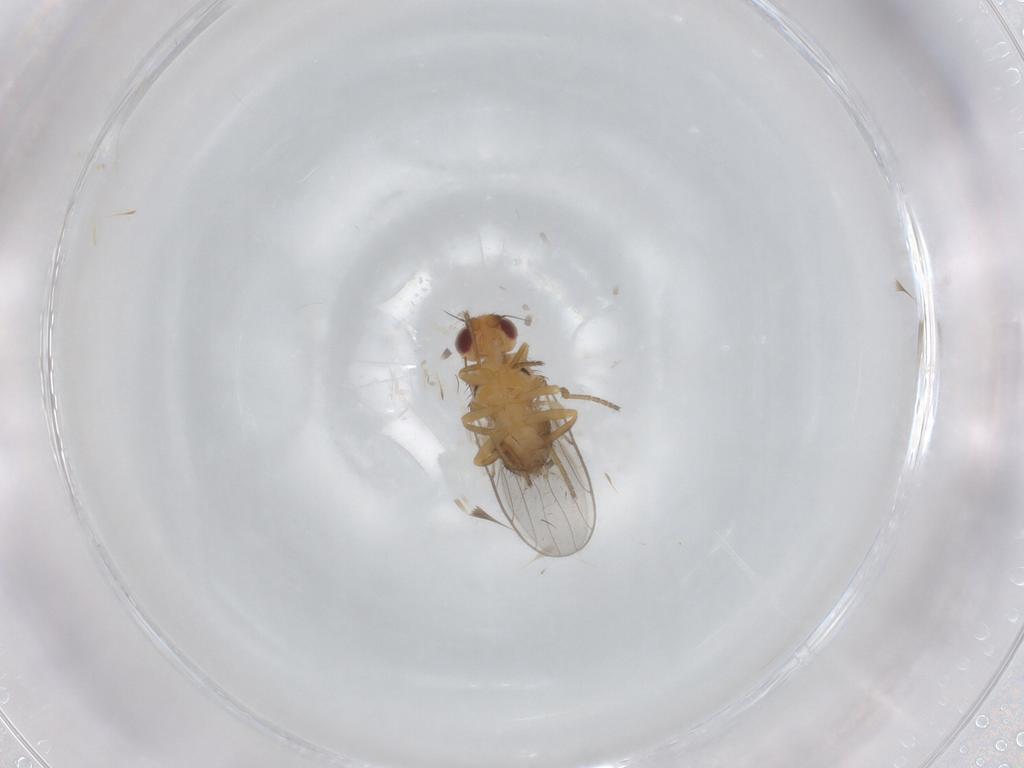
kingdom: Animalia
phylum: Arthropoda
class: Insecta
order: Diptera
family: Chloropidae
